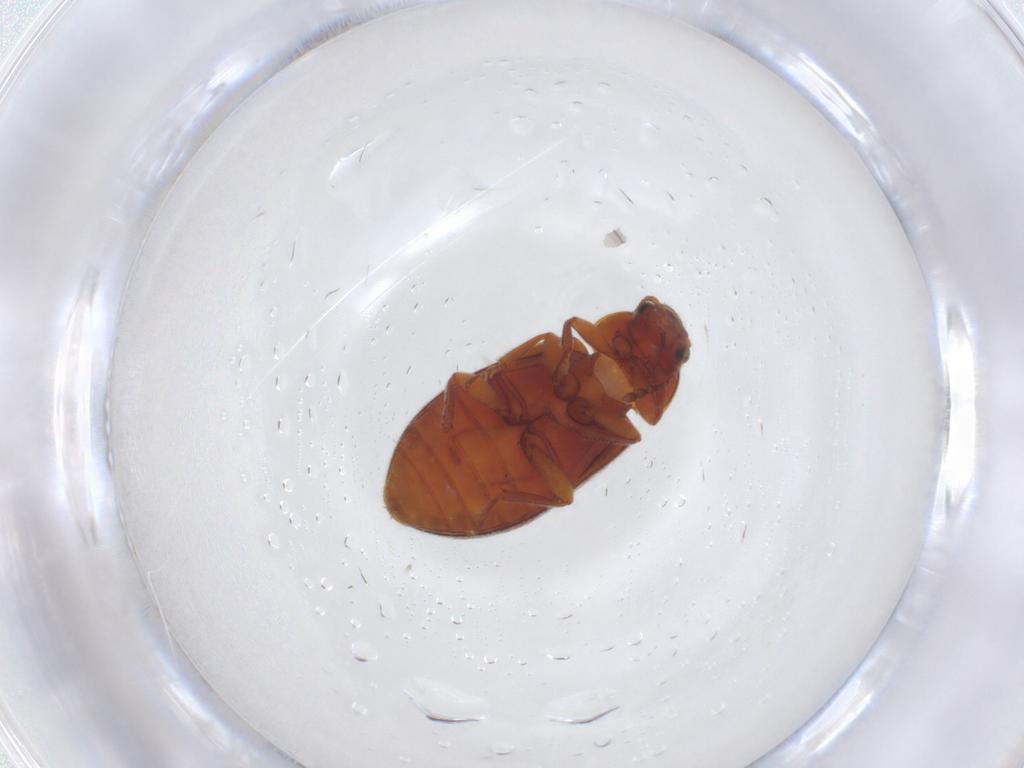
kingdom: Animalia
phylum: Arthropoda
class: Insecta
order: Coleoptera
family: Byturidae
